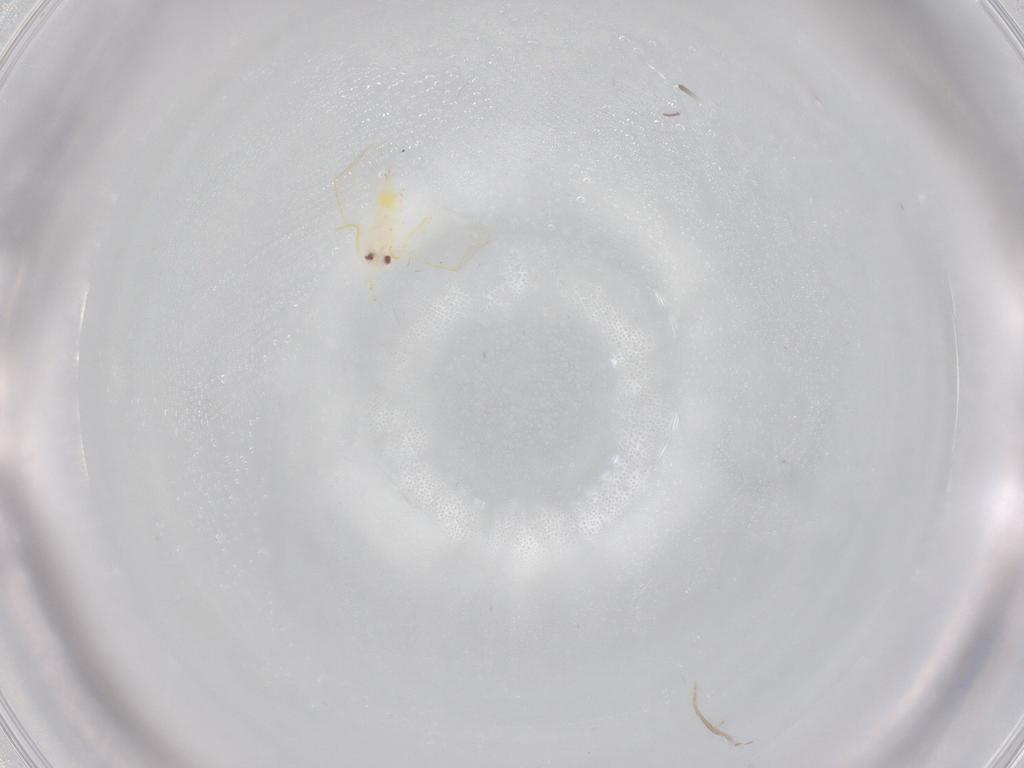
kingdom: Animalia
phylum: Arthropoda
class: Insecta
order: Hemiptera
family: Aleyrodidae
